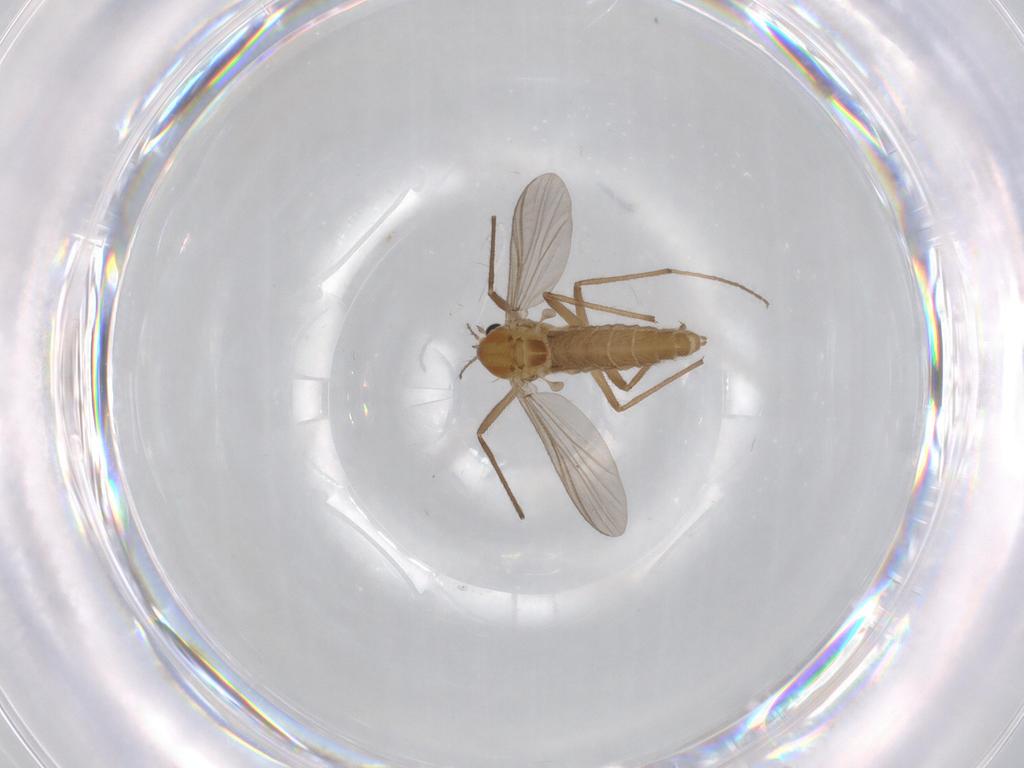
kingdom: Animalia
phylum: Arthropoda
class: Insecta
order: Diptera
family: Chironomidae
